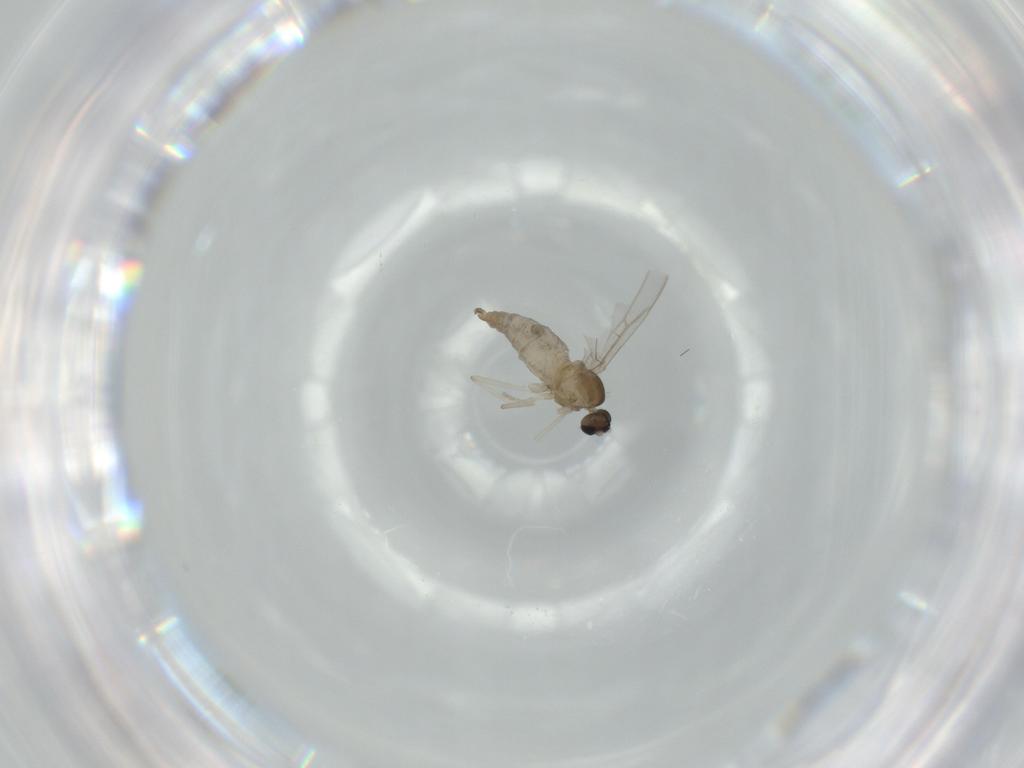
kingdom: Animalia
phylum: Arthropoda
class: Insecta
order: Diptera
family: Cecidomyiidae
